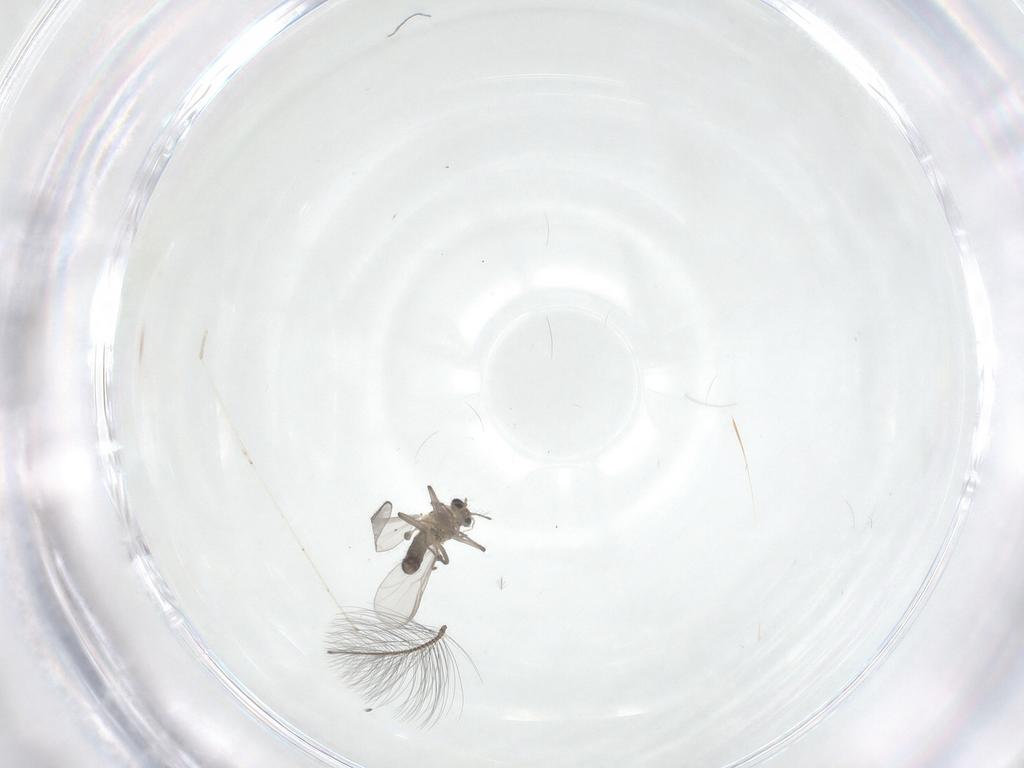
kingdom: Animalia
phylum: Arthropoda
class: Insecta
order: Diptera
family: Chironomidae
